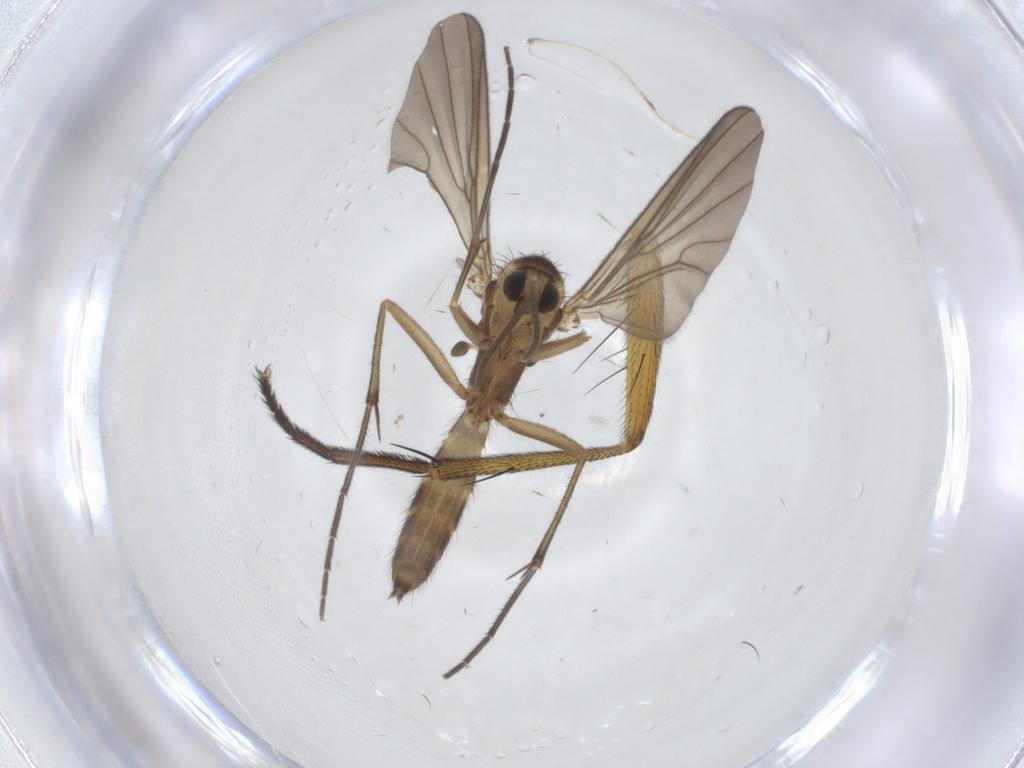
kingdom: Animalia
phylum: Arthropoda
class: Insecta
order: Diptera
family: Mycetophilidae
